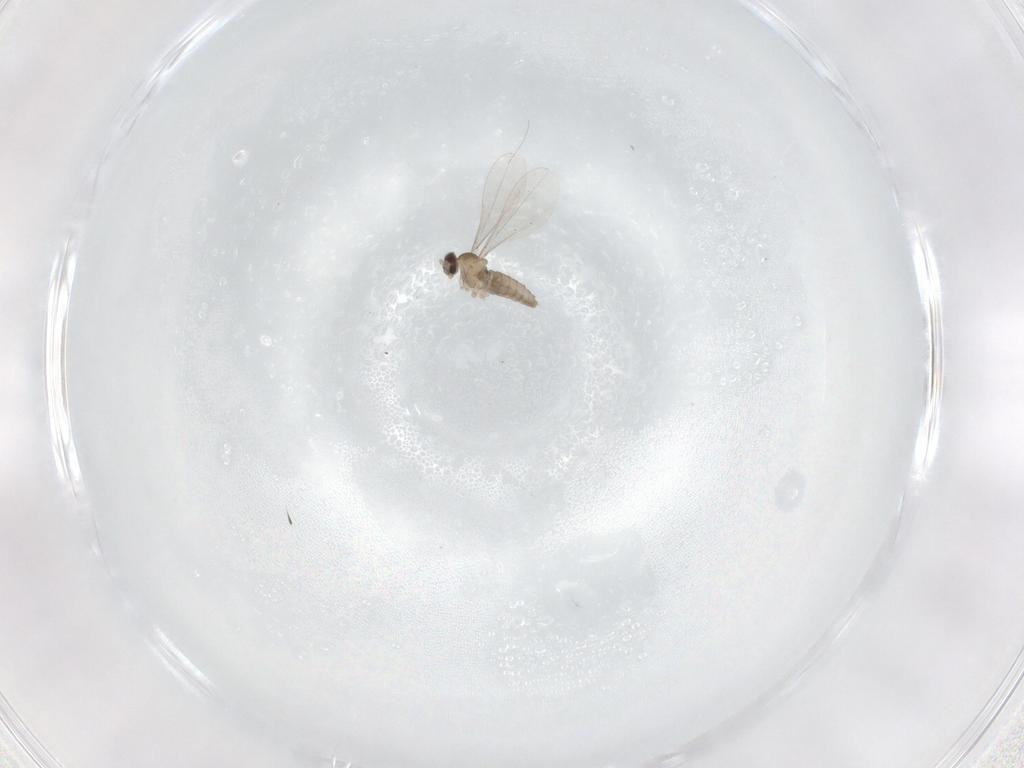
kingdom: Animalia
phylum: Arthropoda
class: Insecta
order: Diptera
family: Cecidomyiidae
